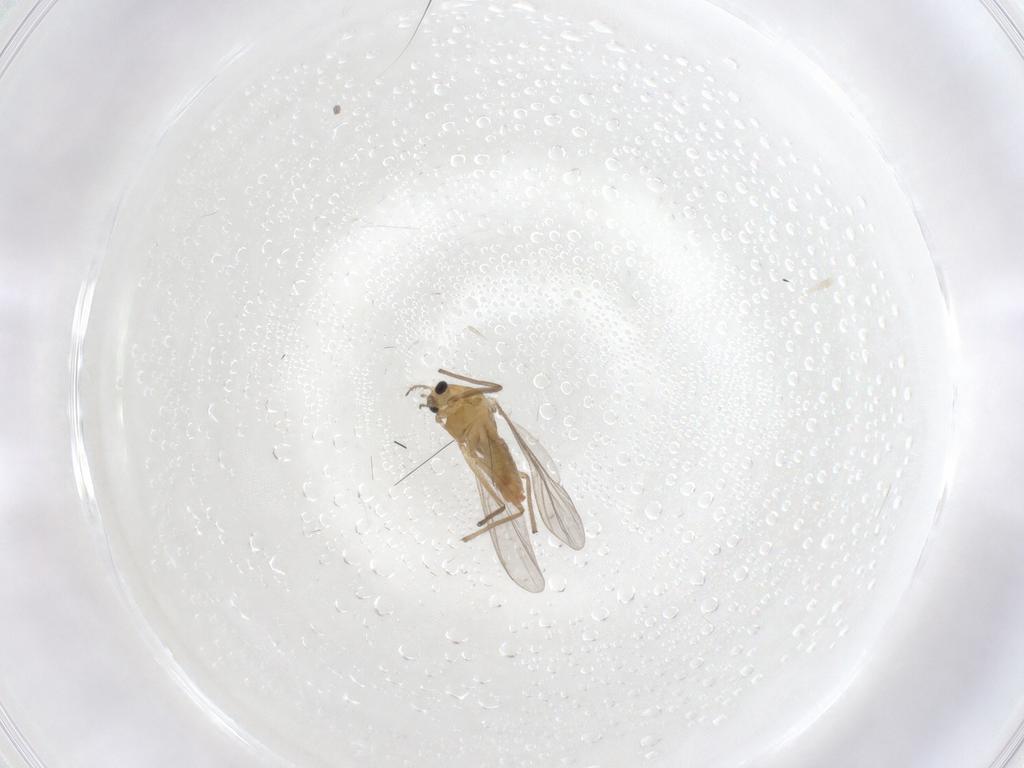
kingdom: Animalia
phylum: Arthropoda
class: Insecta
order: Diptera
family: Chironomidae
